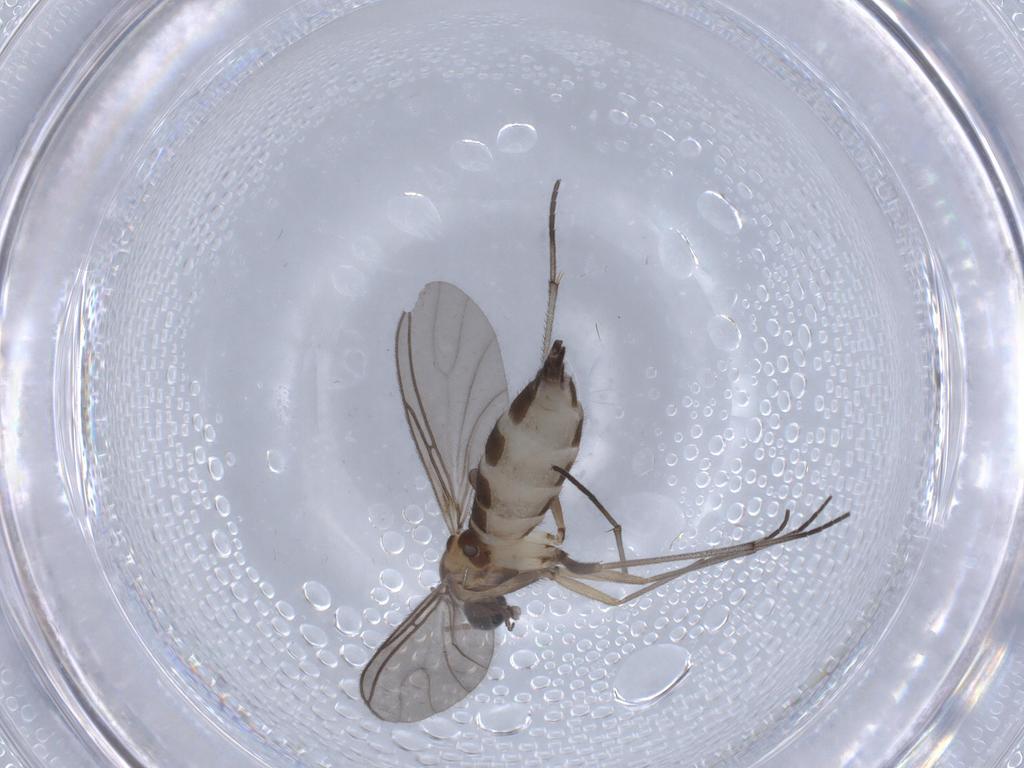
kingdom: Animalia
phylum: Arthropoda
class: Insecta
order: Diptera
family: Sciaridae
